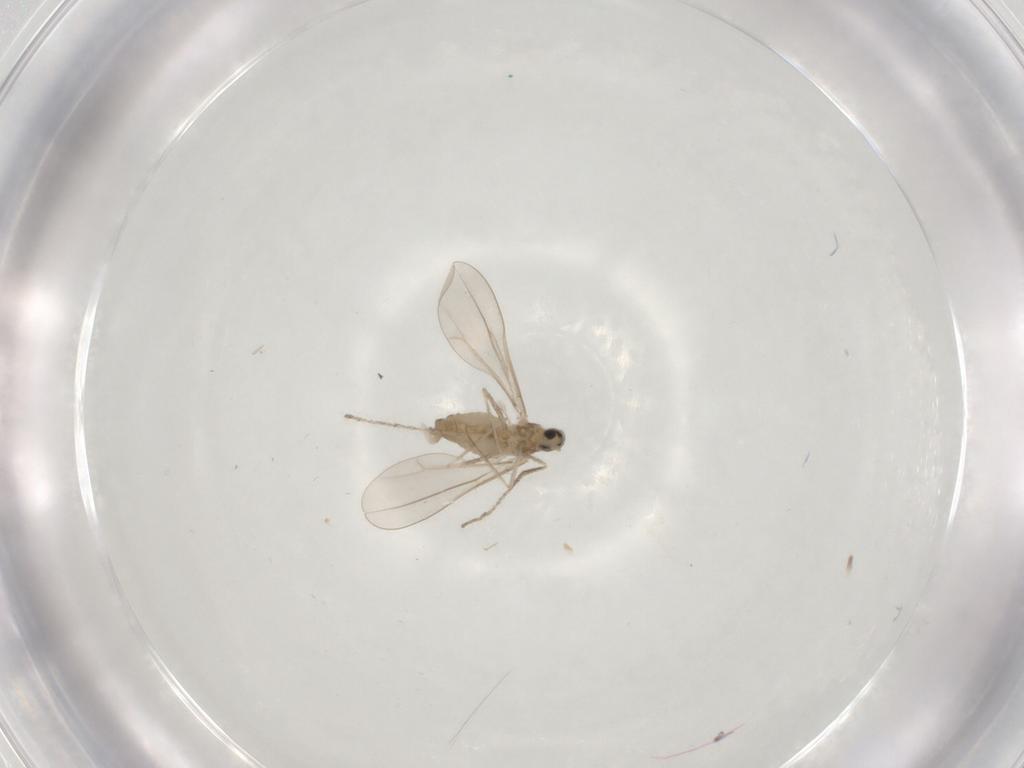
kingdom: Animalia
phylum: Arthropoda
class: Insecta
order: Diptera
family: Cecidomyiidae
